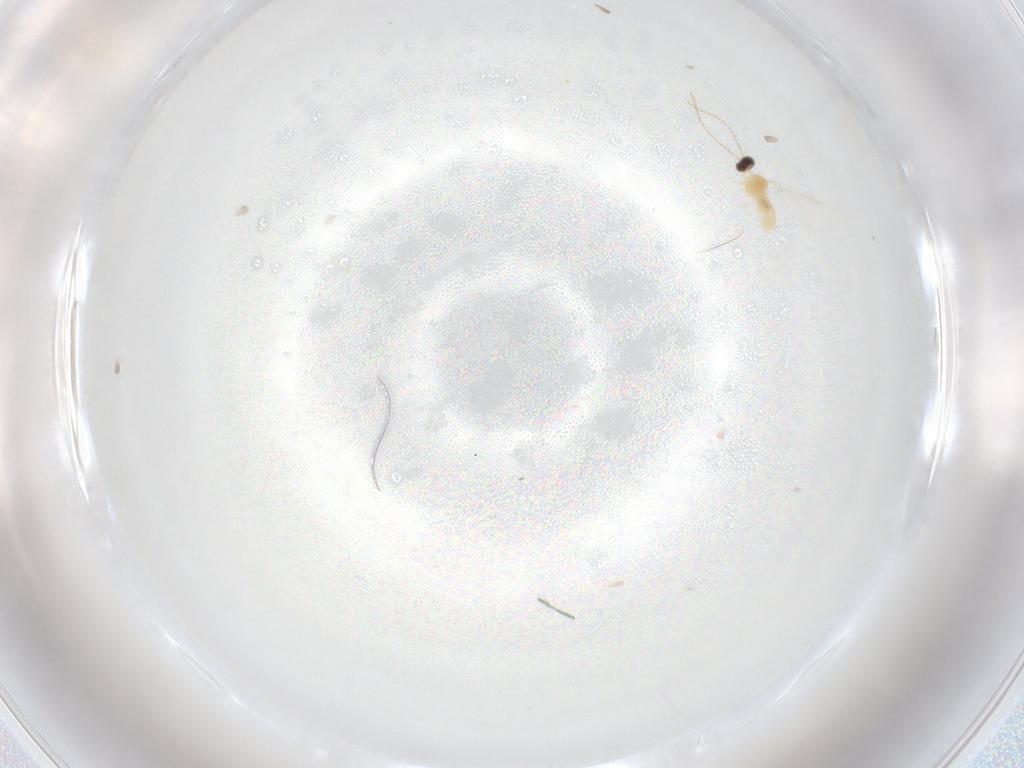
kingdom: Animalia
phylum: Arthropoda
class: Insecta
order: Diptera
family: Cecidomyiidae
